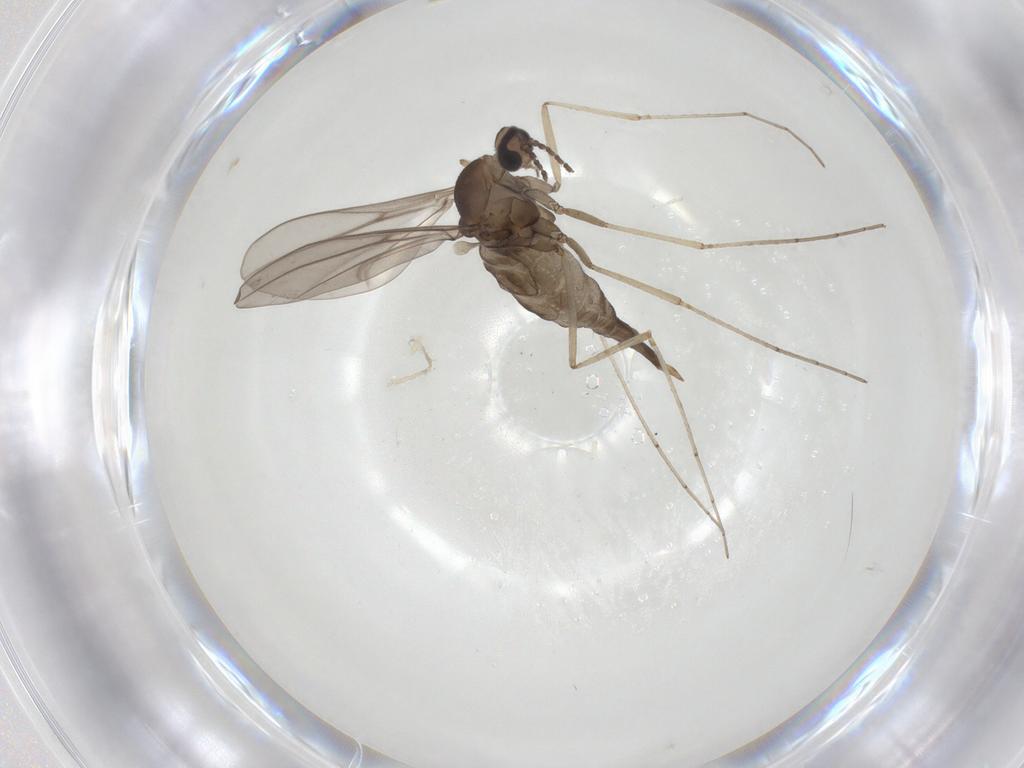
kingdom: Animalia
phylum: Arthropoda
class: Insecta
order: Diptera
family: Cecidomyiidae
